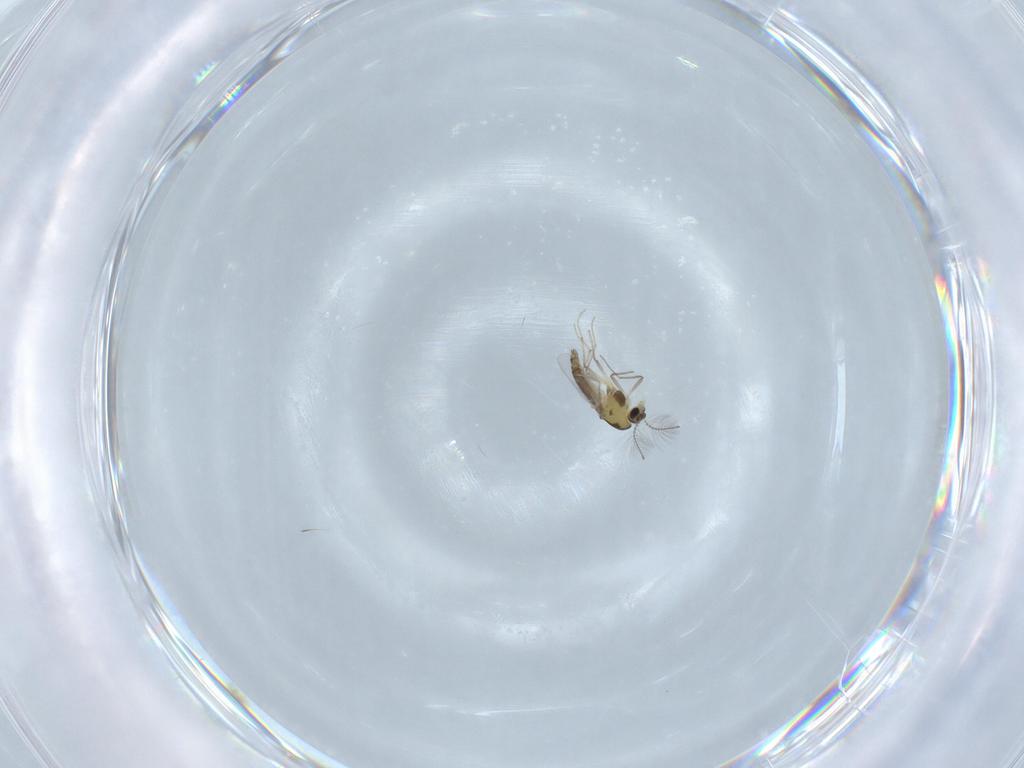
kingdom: Animalia
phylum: Arthropoda
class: Insecta
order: Diptera
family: Chironomidae
